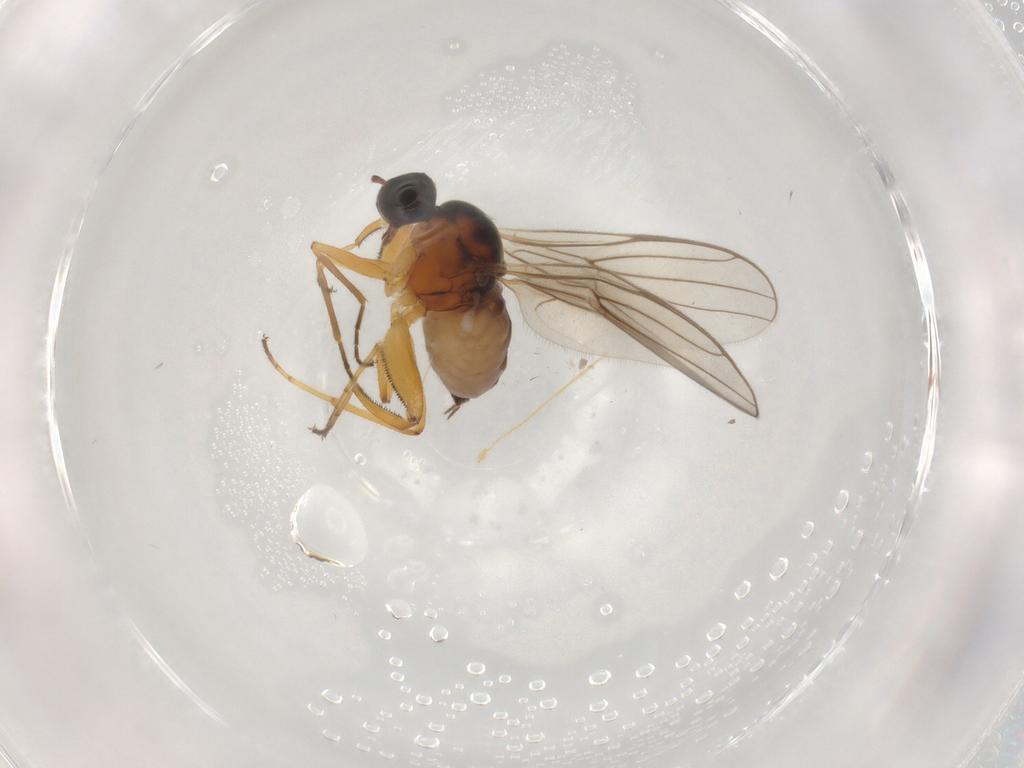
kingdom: Animalia
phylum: Arthropoda
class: Insecta
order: Diptera
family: Hybotidae
